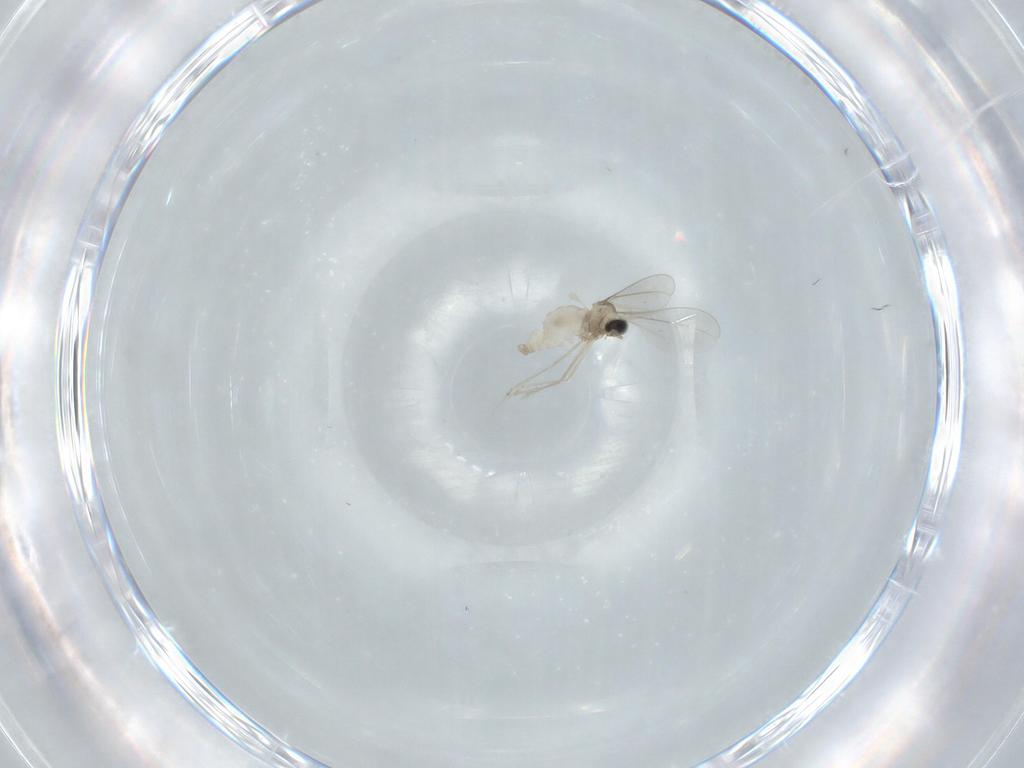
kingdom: Animalia
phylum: Arthropoda
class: Insecta
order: Diptera
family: Cecidomyiidae
